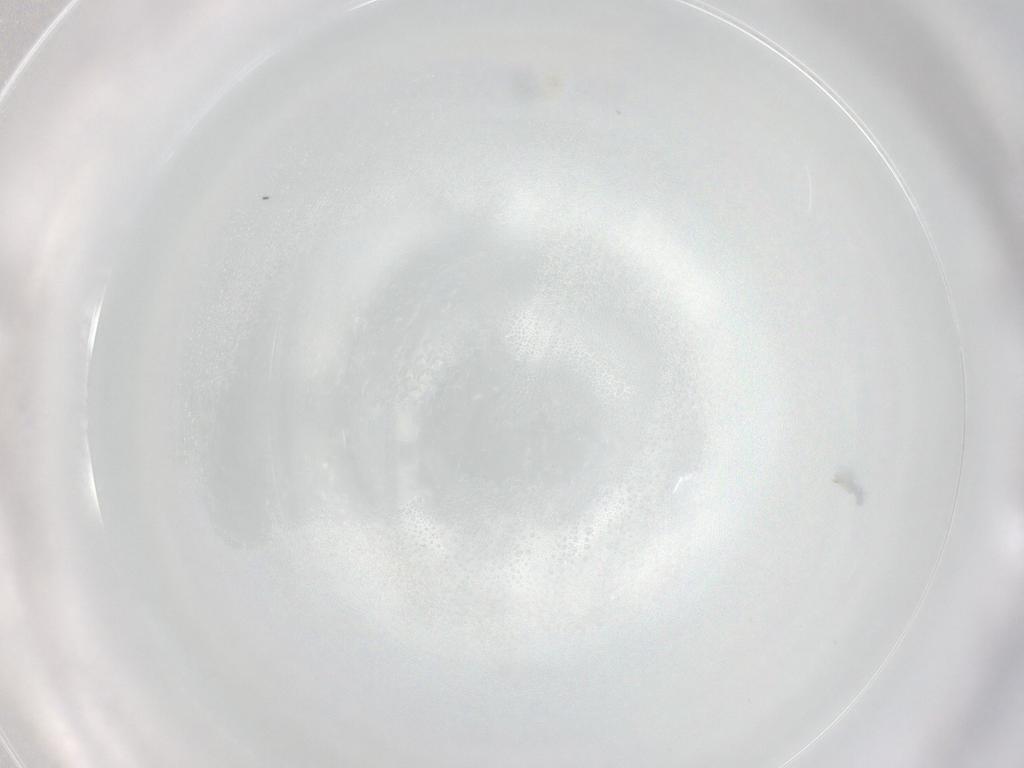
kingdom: Animalia
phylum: Arthropoda
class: Arachnida
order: Trombidiformes
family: Eupodidae
